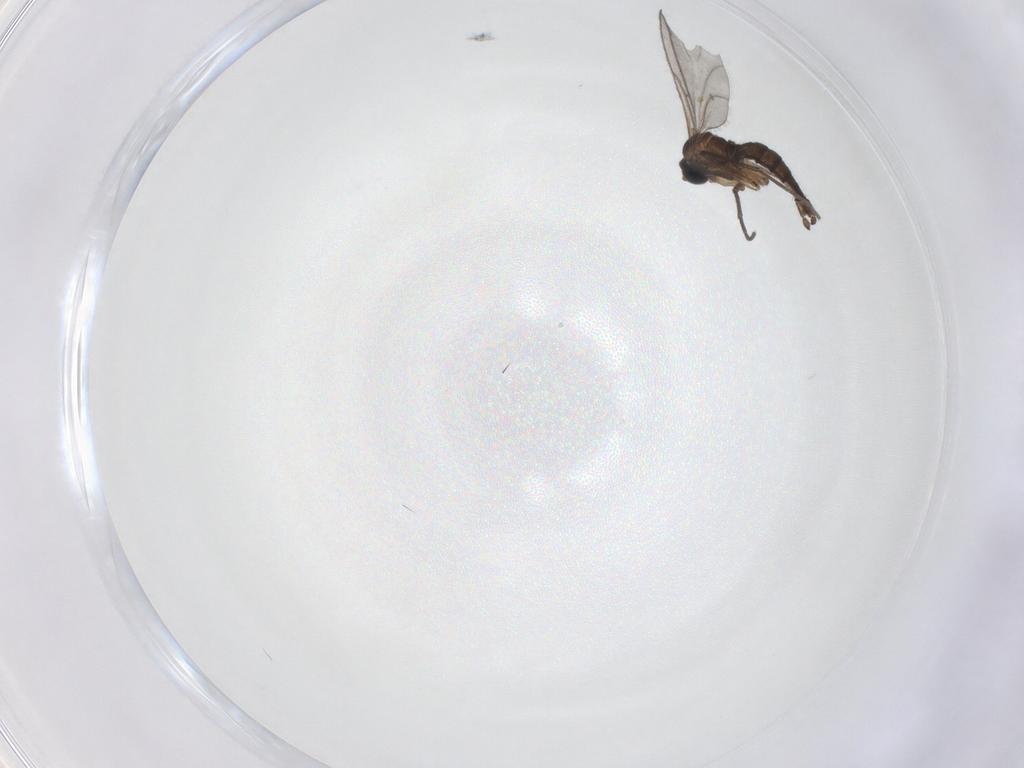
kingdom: Animalia
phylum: Arthropoda
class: Insecta
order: Diptera
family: Sciaridae
